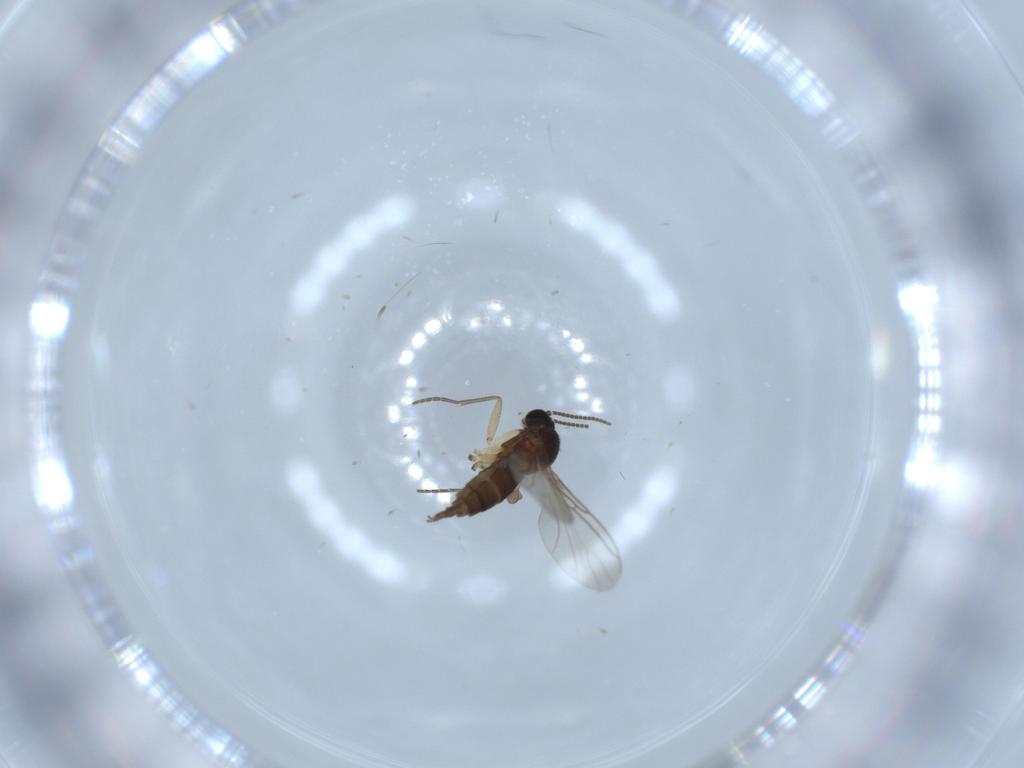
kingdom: Animalia
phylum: Arthropoda
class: Insecta
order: Diptera
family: Sciaridae
